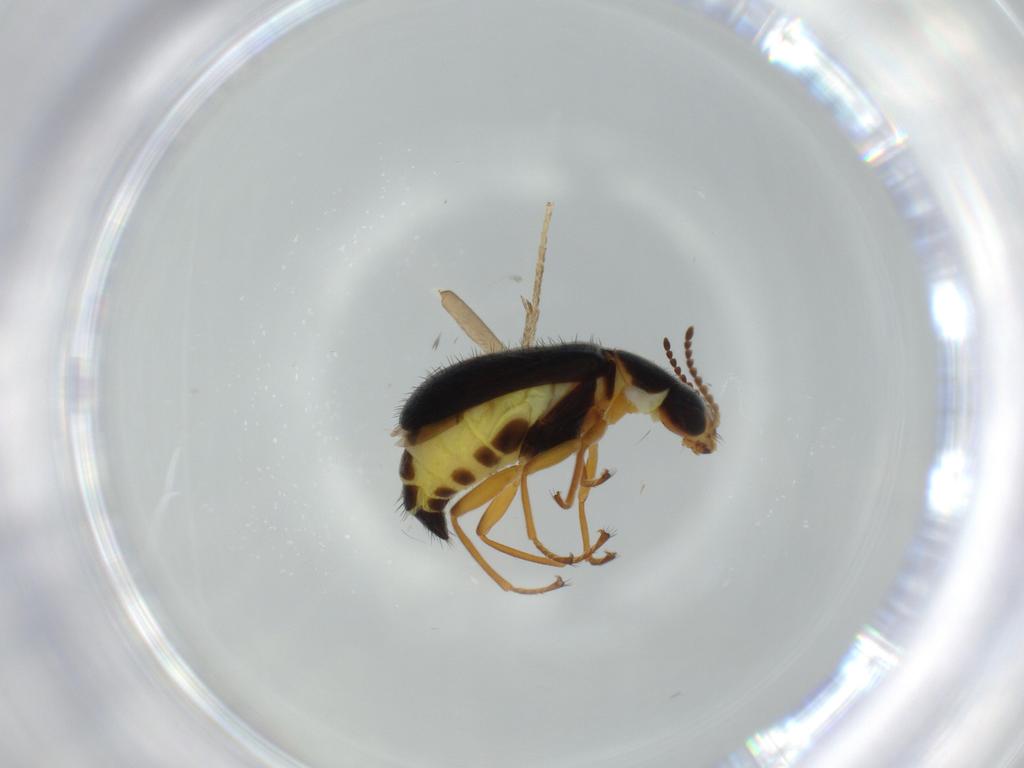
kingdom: Animalia
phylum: Arthropoda
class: Insecta
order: Coleoptera
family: Melyridae
